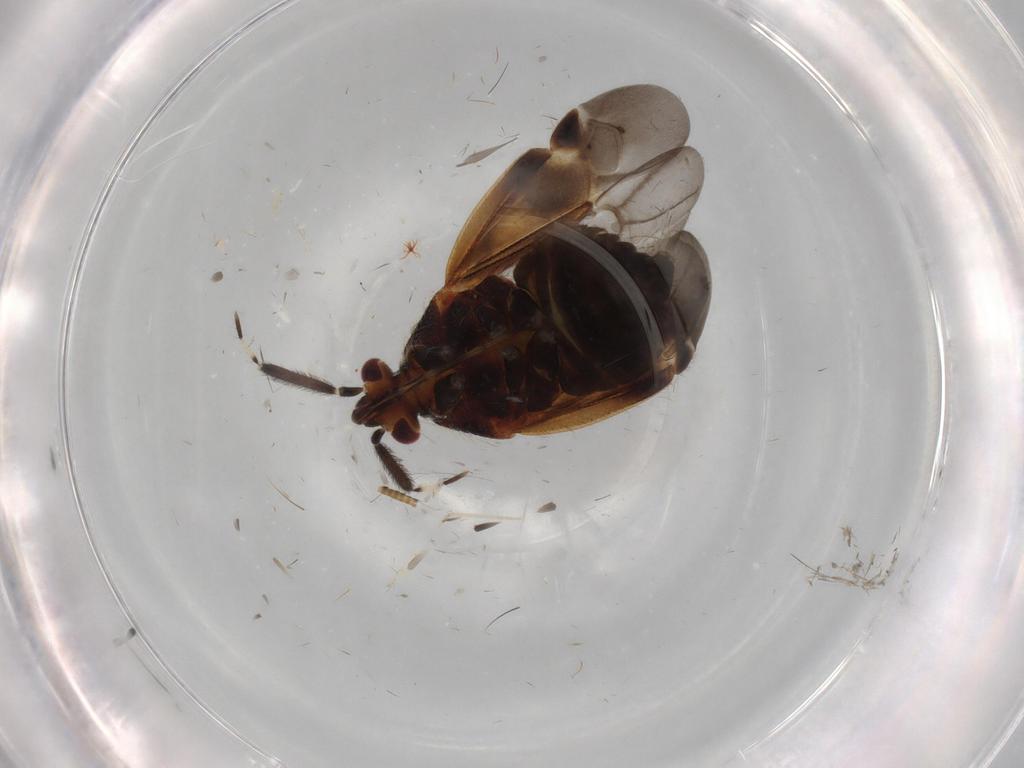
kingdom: Animalia
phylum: Arthropoda
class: Insecta
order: Hemiptera
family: Miridae
